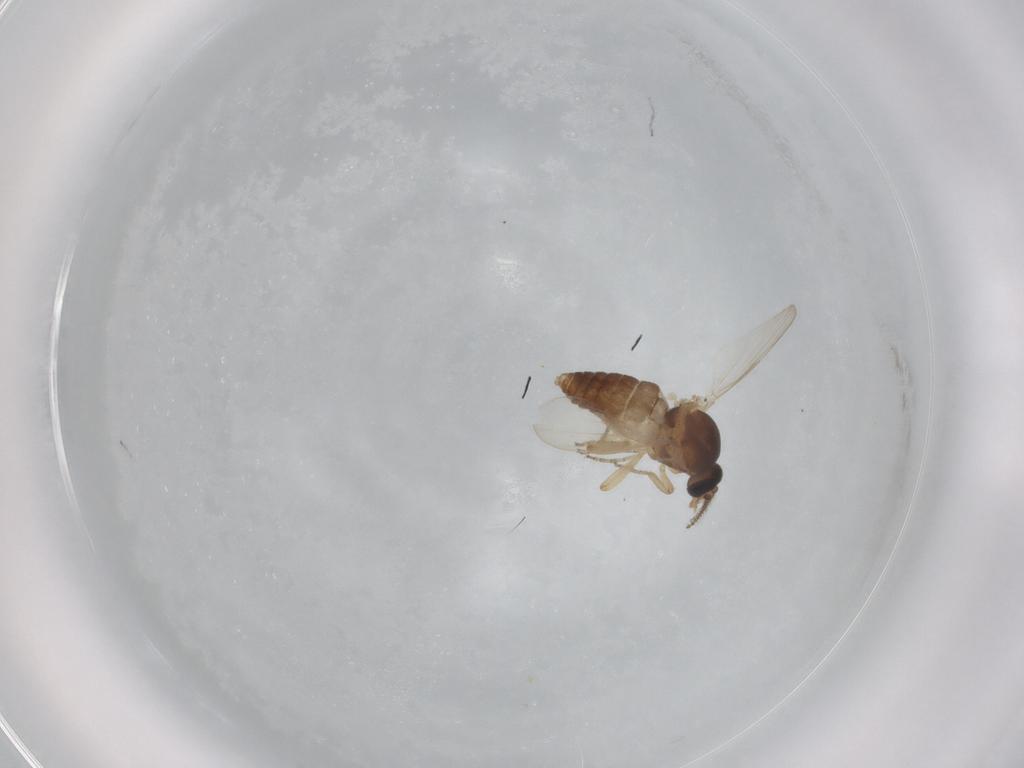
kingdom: Animalia
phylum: Arthropoda
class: Insecta
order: Diptera
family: Ceratopogonidae
